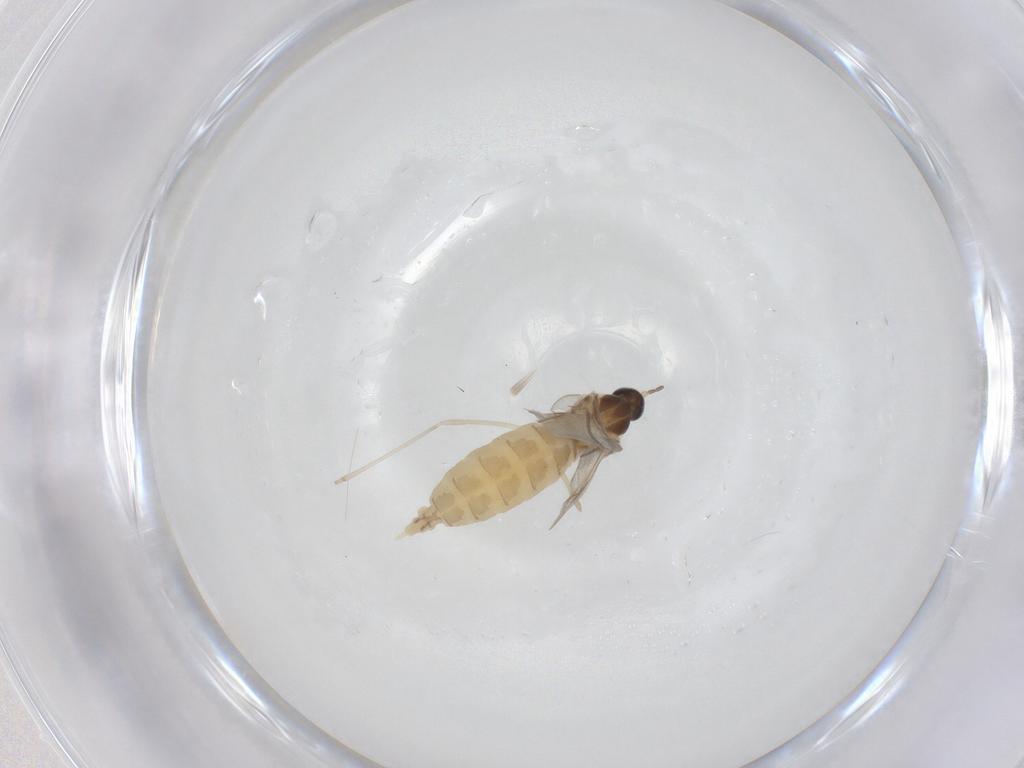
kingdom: Animalia
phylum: Arthropoda
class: Insecta
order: Diptera
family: Cecidomyiidae
